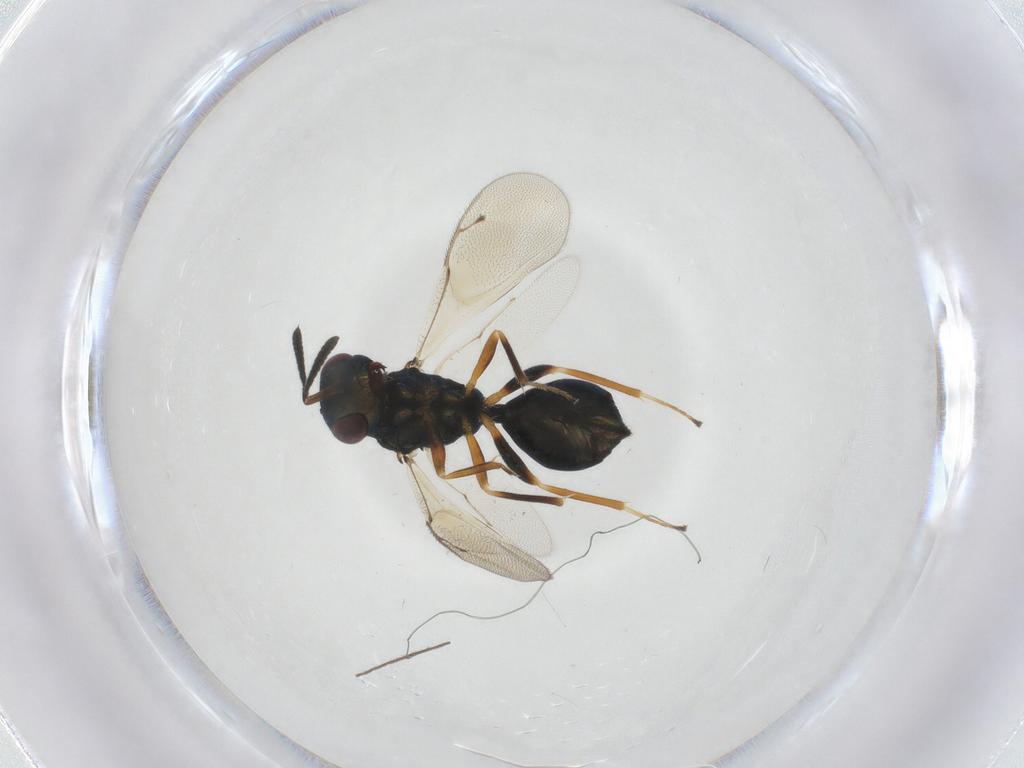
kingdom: Animalia
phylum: Arthropoda
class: Insecta
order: Hymenoptera
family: Pteromalidae
